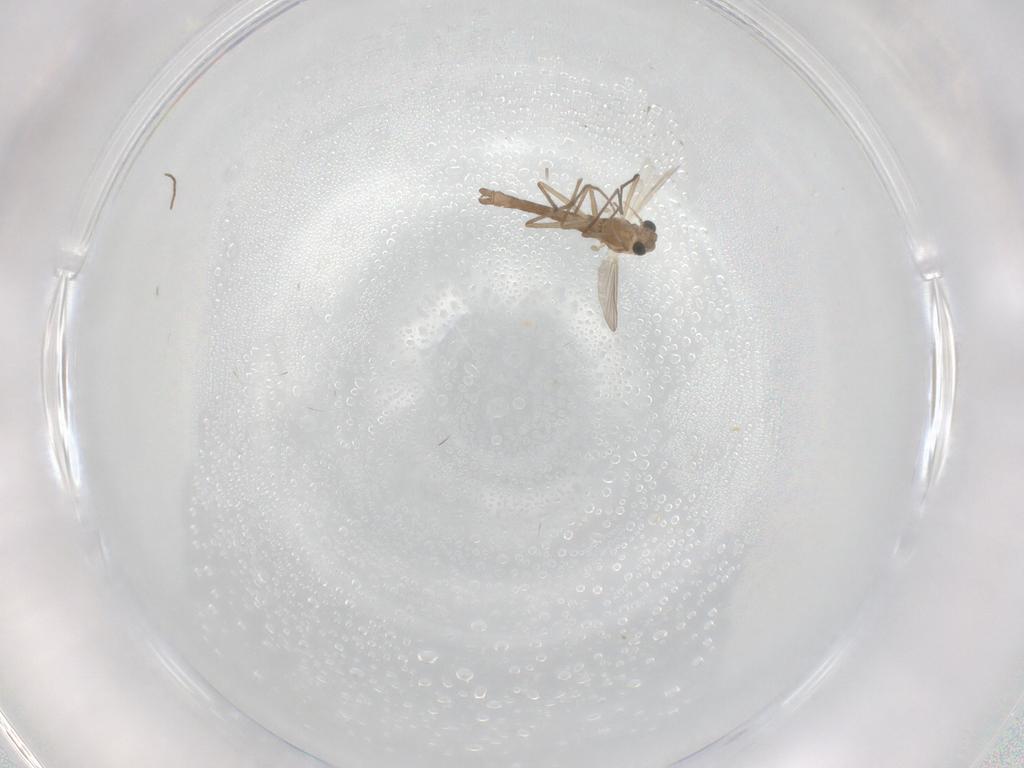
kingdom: Animalia
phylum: Arthropoda
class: Insecta
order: Diptera
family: Chironomidae
